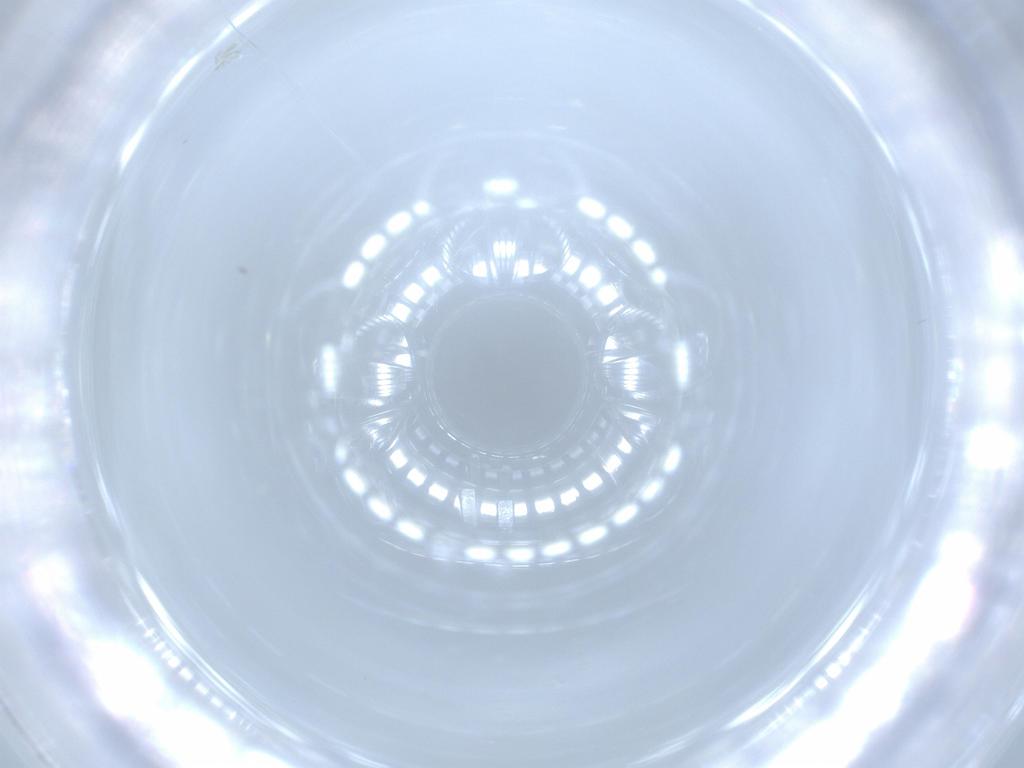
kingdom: Animalia
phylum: Arthropoda
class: Insecta
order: Hymenoptera
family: Ceraphronidae
